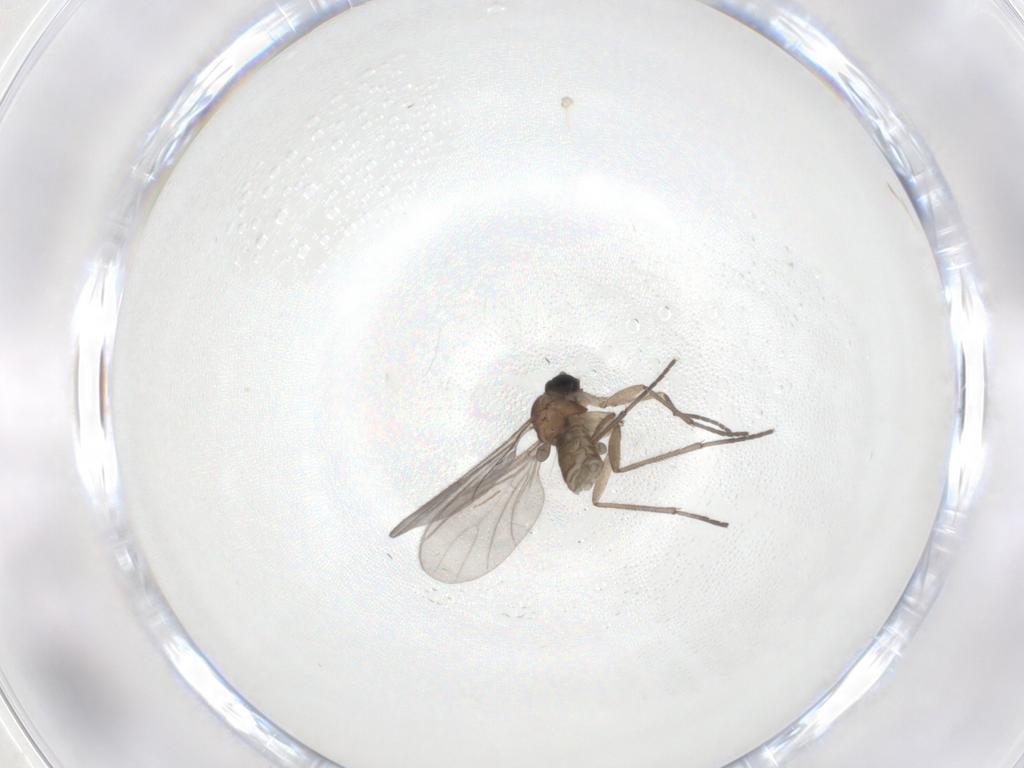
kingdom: Animalia
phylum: Arthropoda
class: Insecta
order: Diptera
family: Sciaridae
